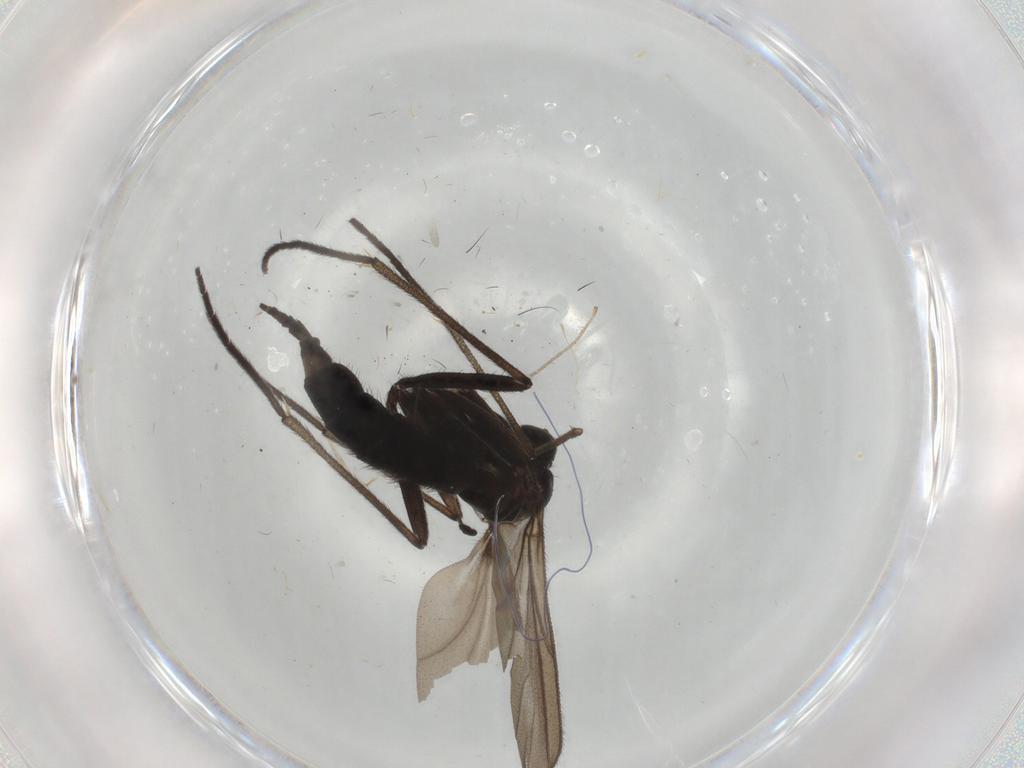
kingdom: Animalia
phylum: Arthropoda
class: Insecta
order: Diptera
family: Sciaridae
